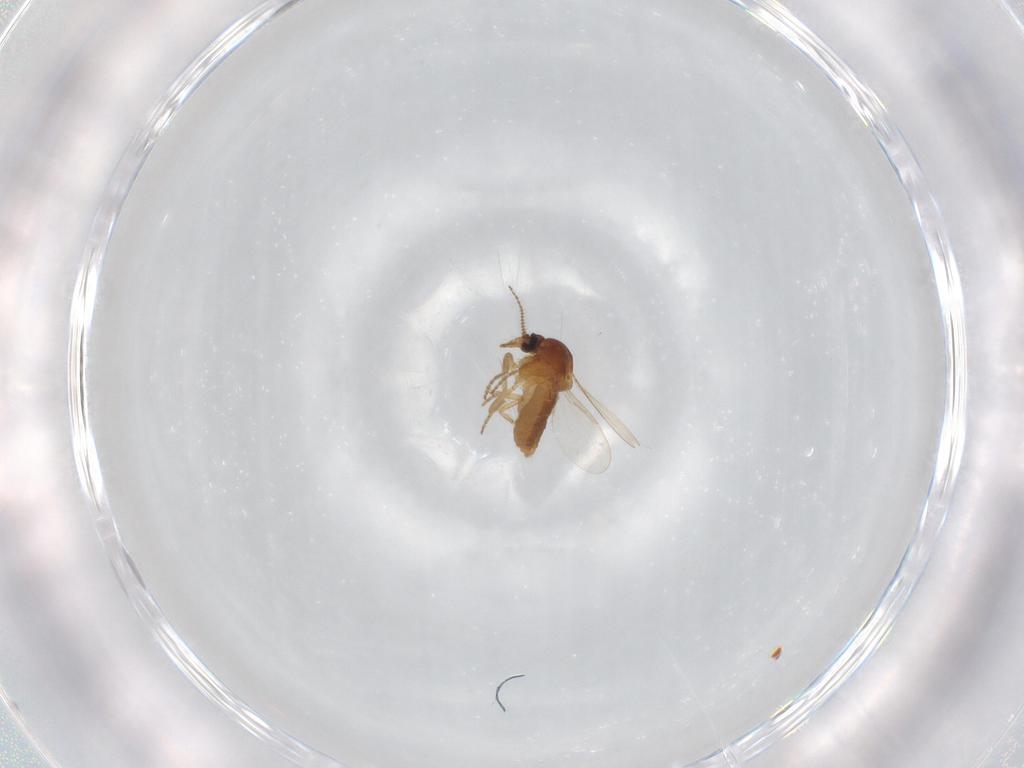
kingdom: Animalia
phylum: Arthropoda
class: Insecta
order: Diptera
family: Ceratopogonidae
